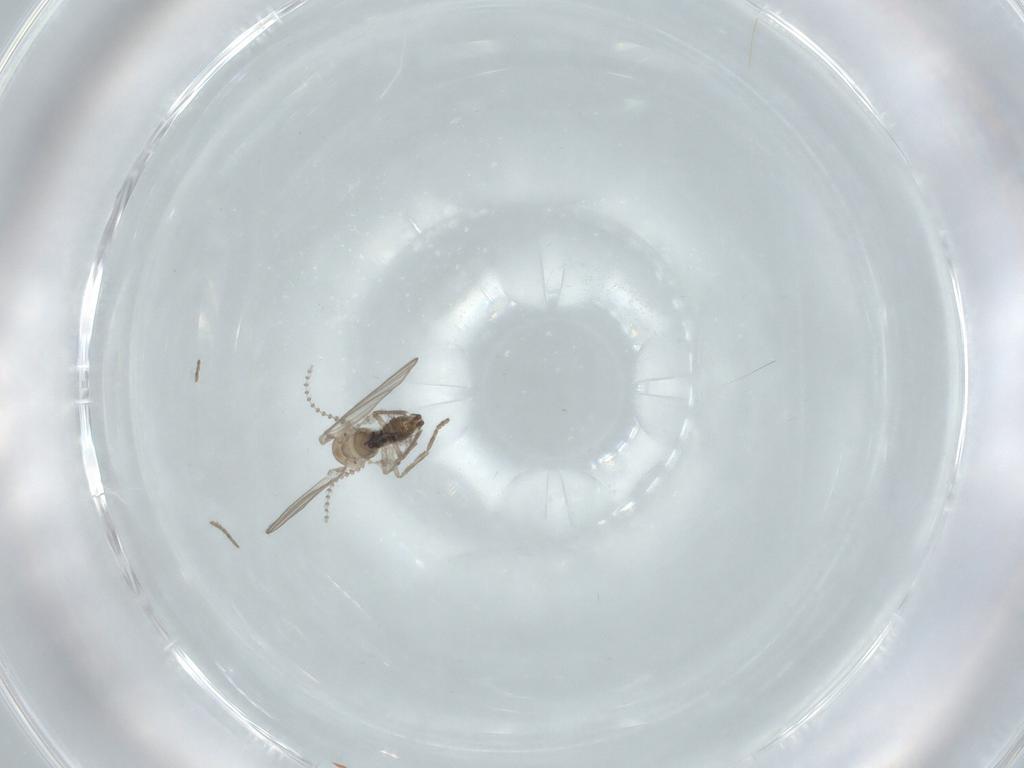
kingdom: Animalia
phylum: Arthropoda
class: Insecta
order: Diptera
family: Psychodidae
